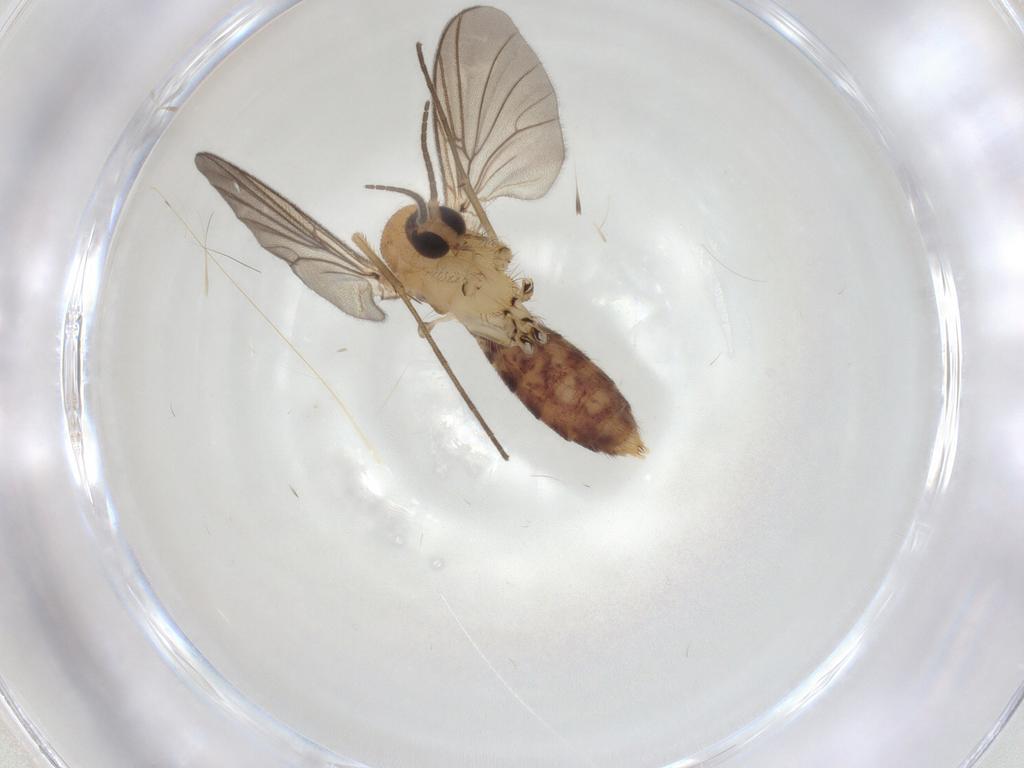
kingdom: Animalia
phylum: Arthropoda
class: Insecta
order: Diptera
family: Mycetophilidae
